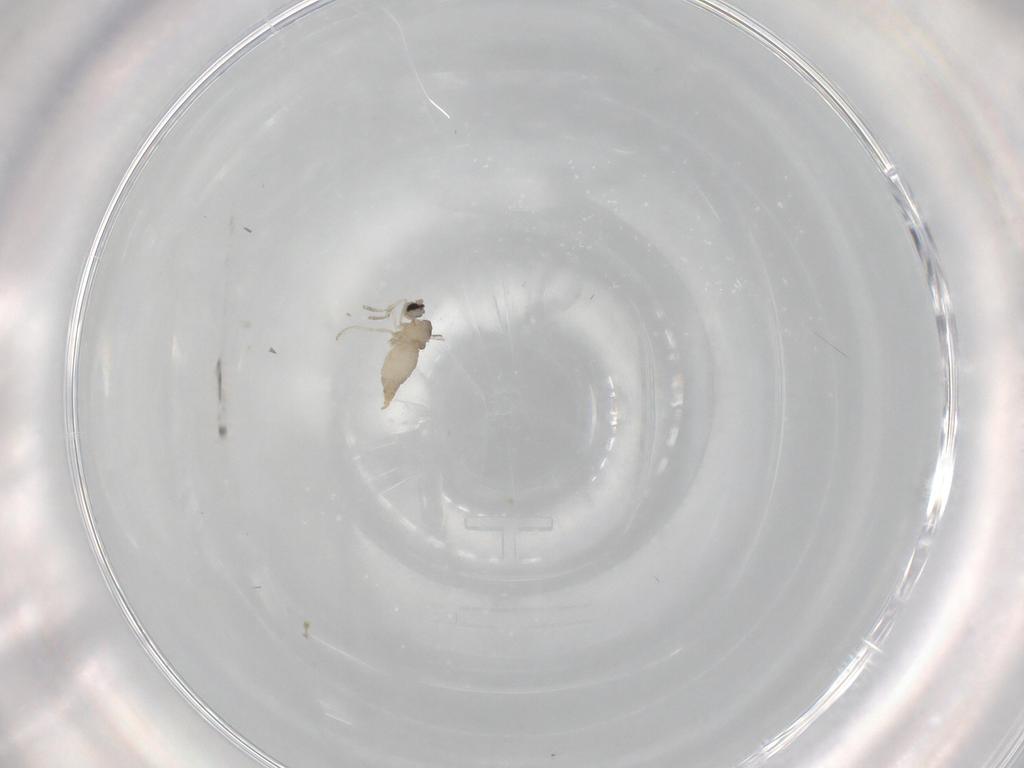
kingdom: Animalia
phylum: Arthropoda
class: Insecta
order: Diptera
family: Cecidomyiidae
